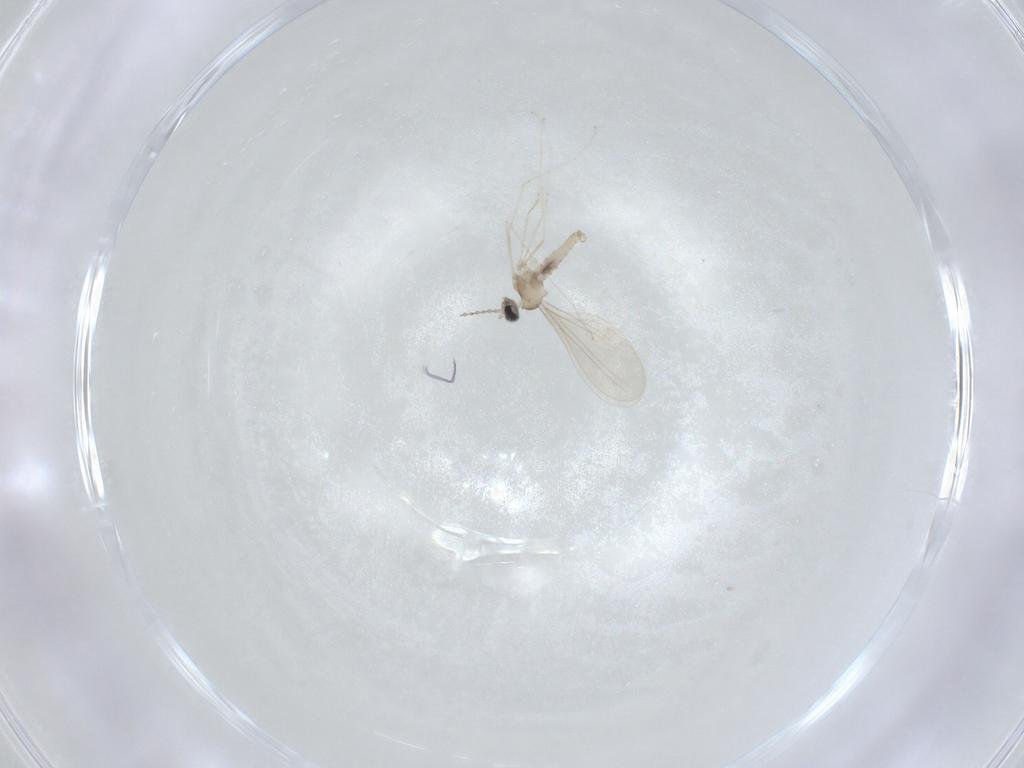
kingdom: Animalia
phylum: Arthropoda
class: Insecta
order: Diptera
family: Cecidomyiidae
